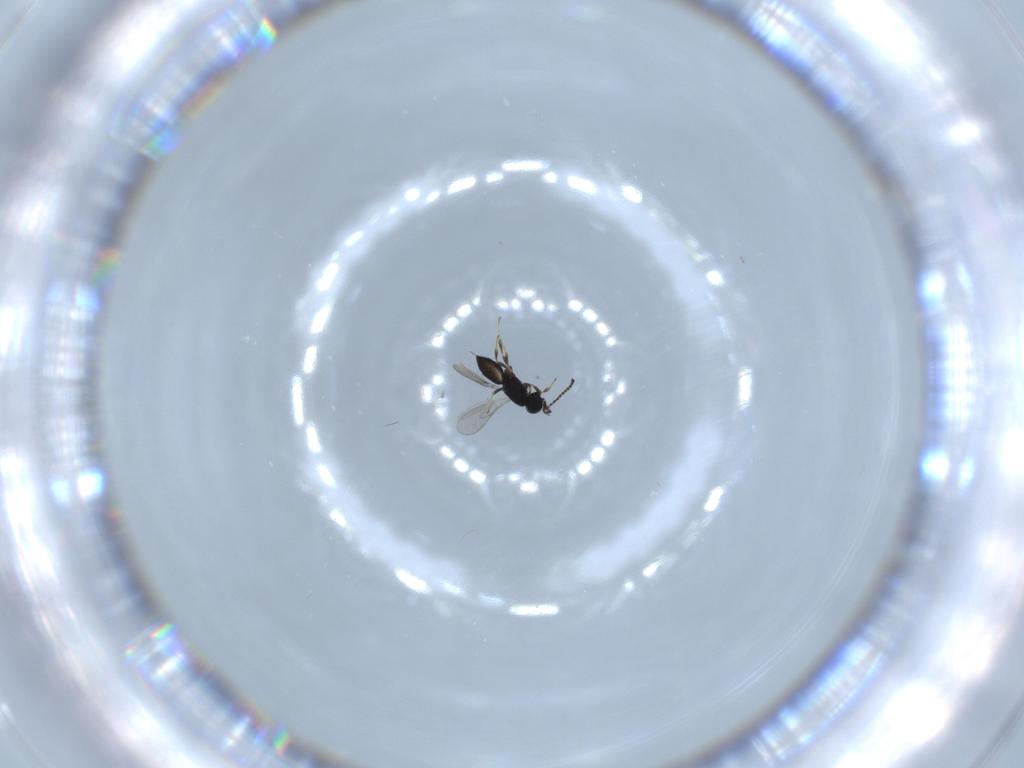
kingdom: Animalia
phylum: Arthropoda
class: Insecta
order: Hymenoptera
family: Scelionidae
